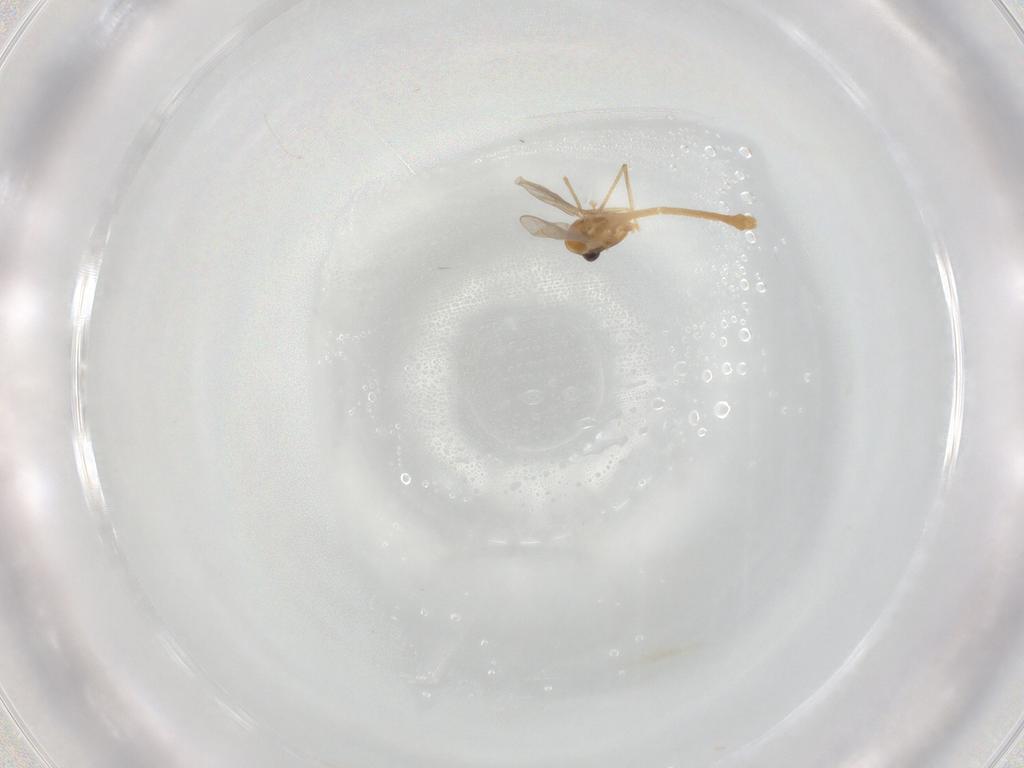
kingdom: Animalia
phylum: Arthropoda
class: Insecta
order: Diptera
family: Chironomidae
